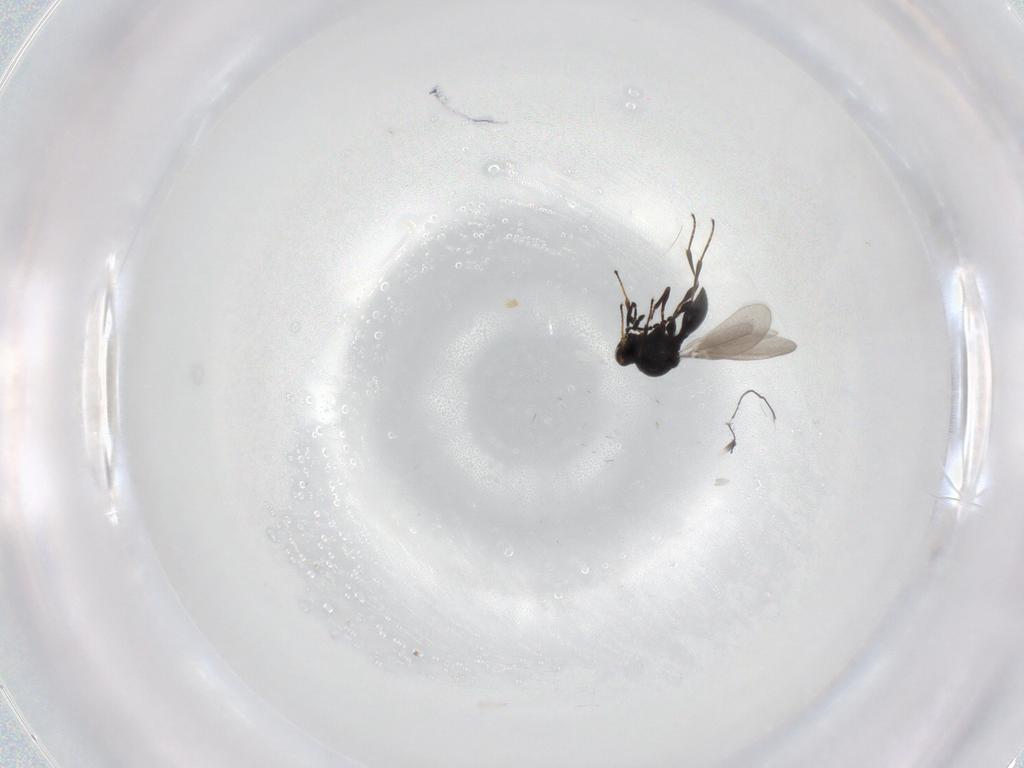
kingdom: Animalia
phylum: Arthropoda
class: Insecta
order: Hymenoptera
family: Platygastridae
